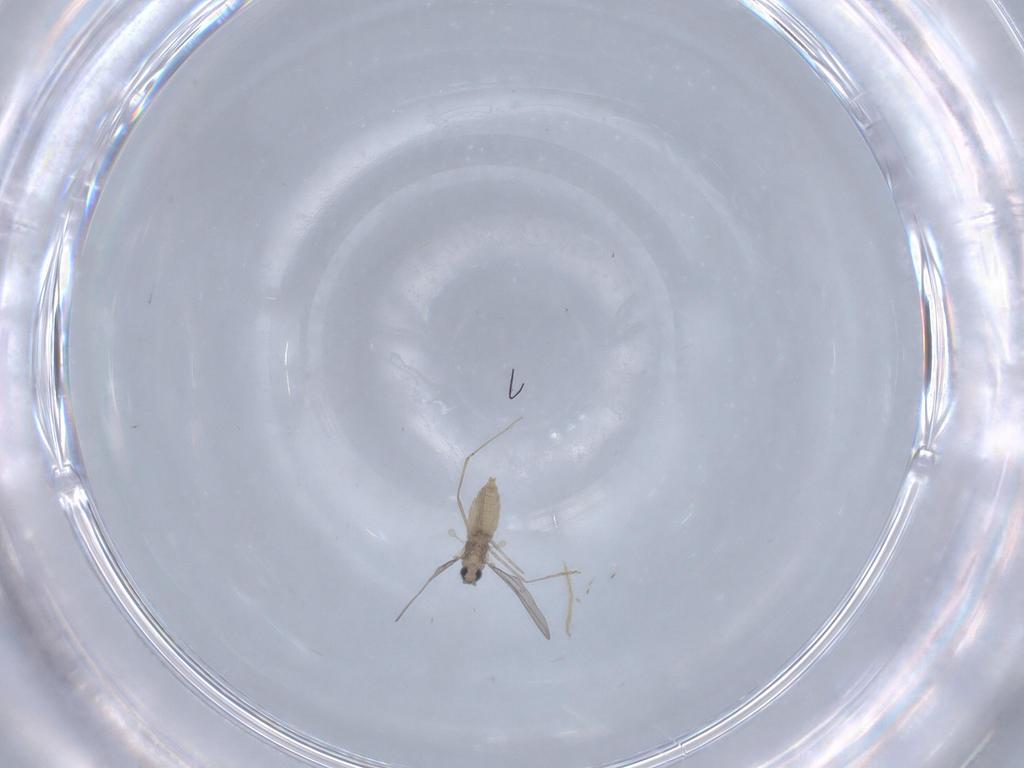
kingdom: Animalia
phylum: Arthropoda
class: Insecta
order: Diptera
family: Chironomidae
